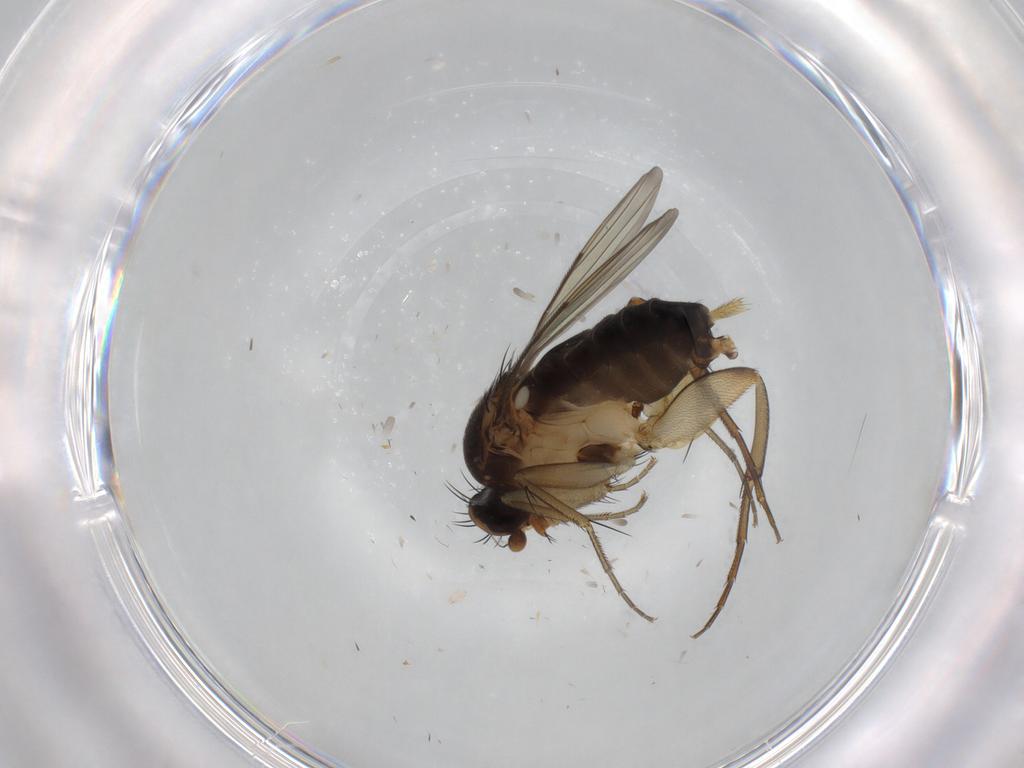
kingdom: Animalia
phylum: Arthropoda
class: Insecta
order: Diptera
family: Phoridae
